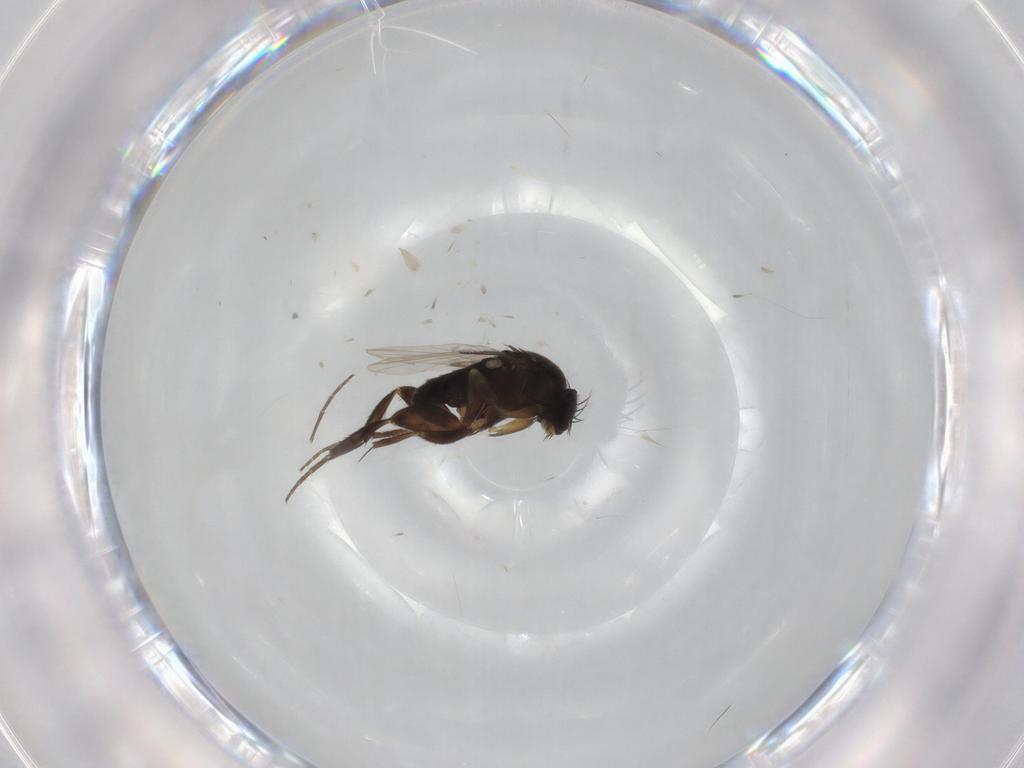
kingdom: Animalia
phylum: Arthropoda
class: Insecta
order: Diptera
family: Phoridae
